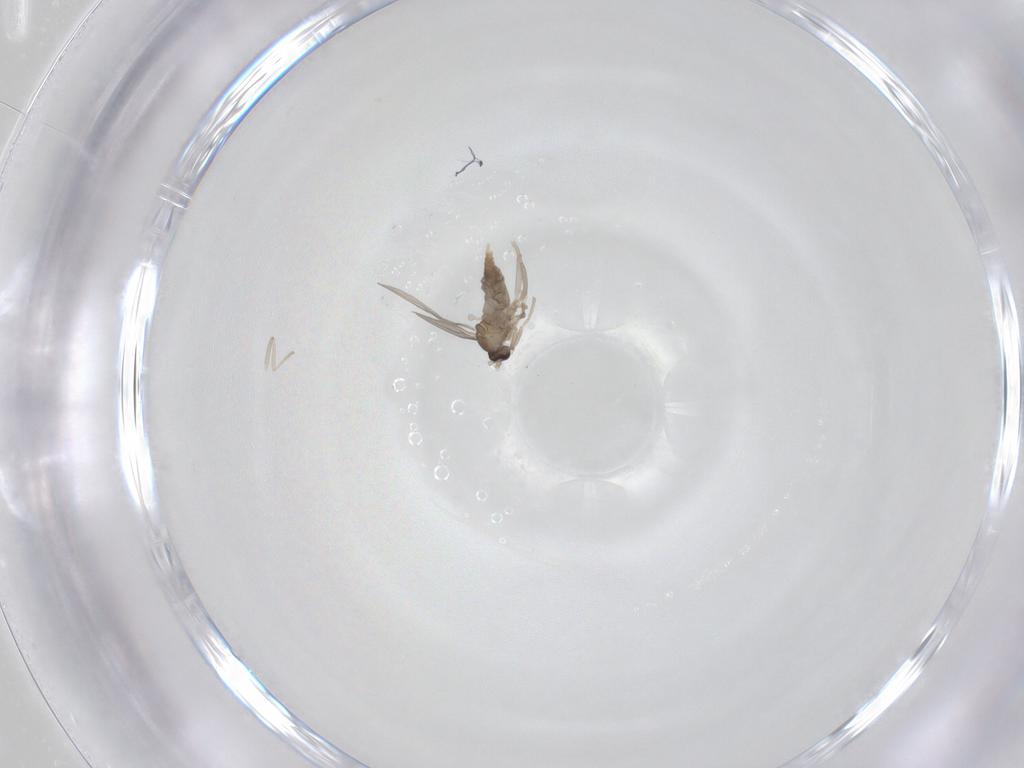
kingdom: Animalia
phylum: Arthropoda
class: Insecta
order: Diptera
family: Cecidomyiidae
